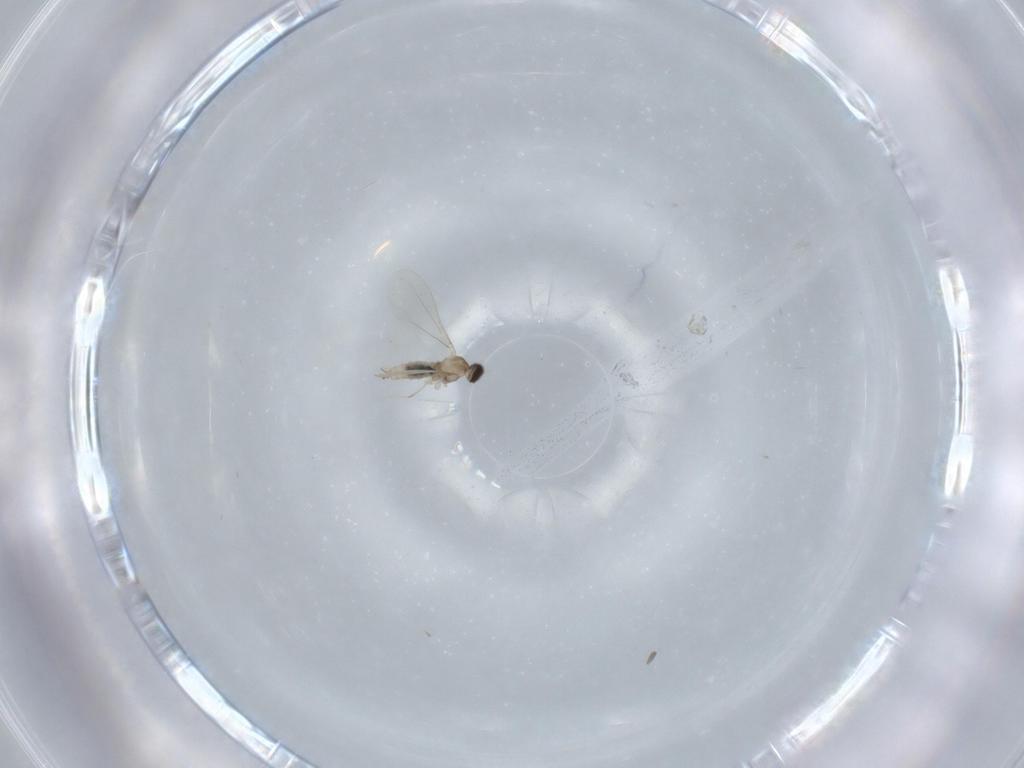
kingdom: Animalia
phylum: Arthropoda
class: Insecta
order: Diptera
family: Cecidomyiidae
